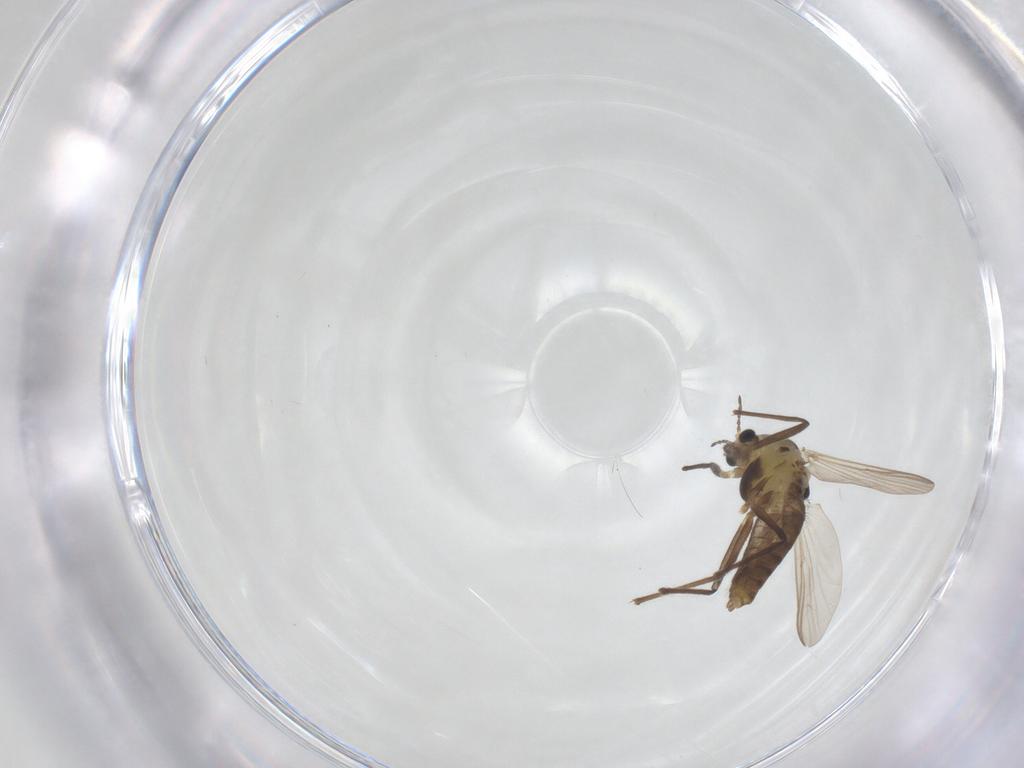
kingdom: Animalia
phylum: Arthropoda
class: Insecta
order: Diptera
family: Chironomidae
